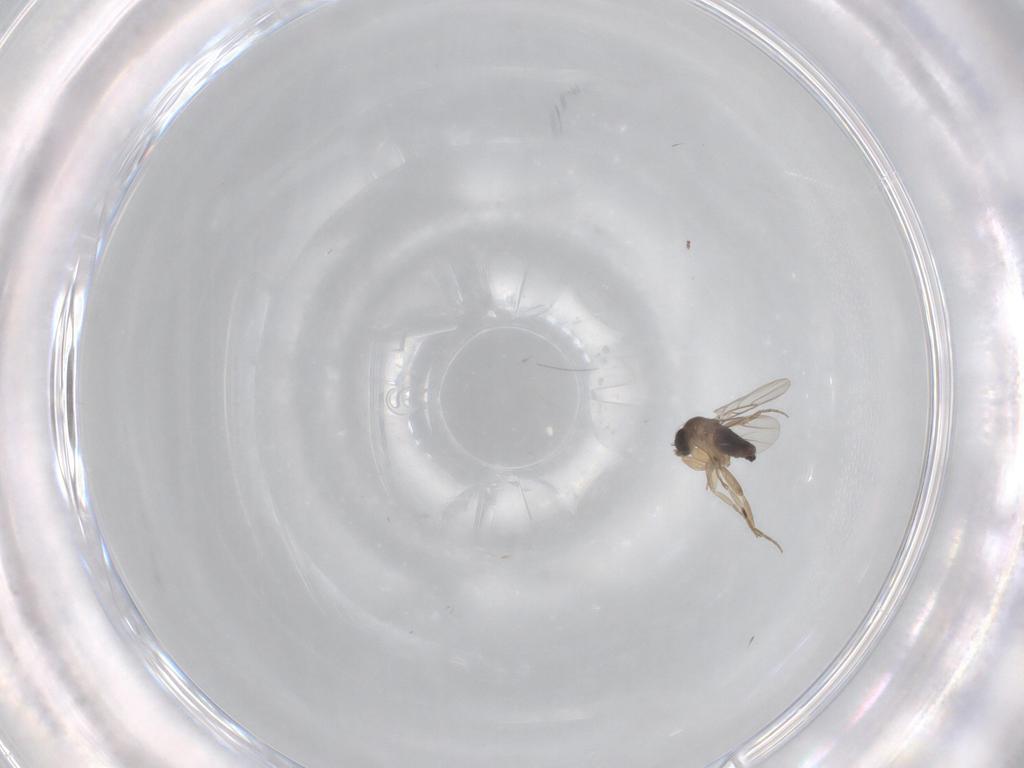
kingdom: Animalia
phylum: Arthropoda
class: Insecta
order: Diptera
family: Phoridae
